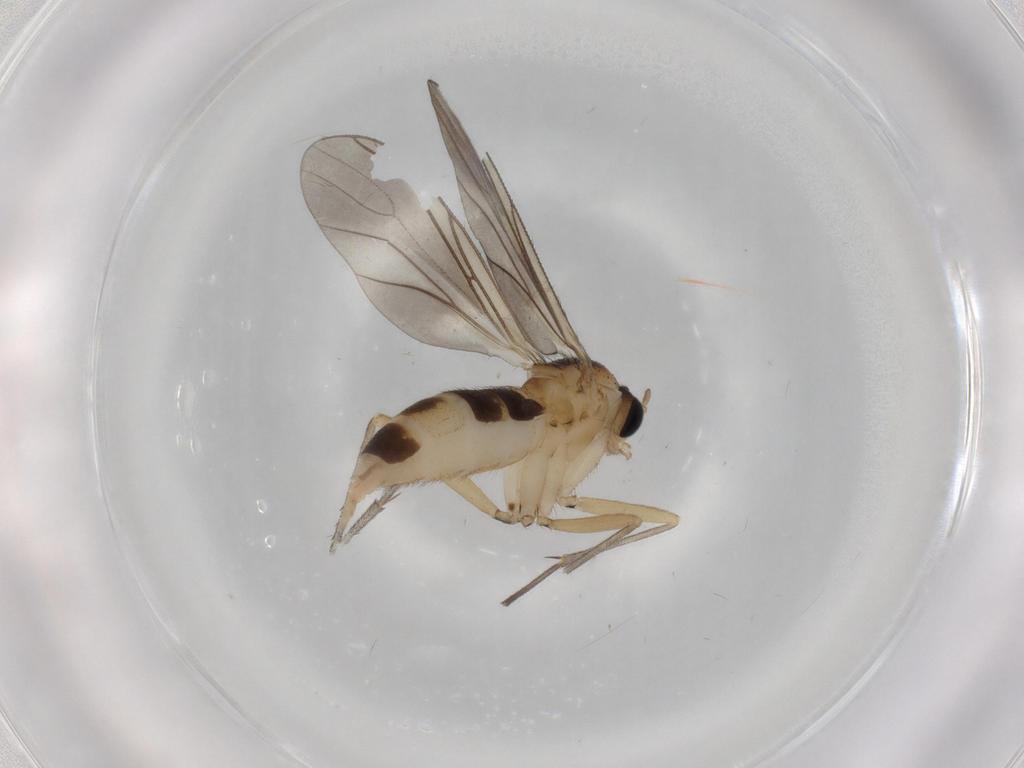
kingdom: Animalia
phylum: Arthropoda
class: Insecta
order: Diptera
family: Sciaridae
